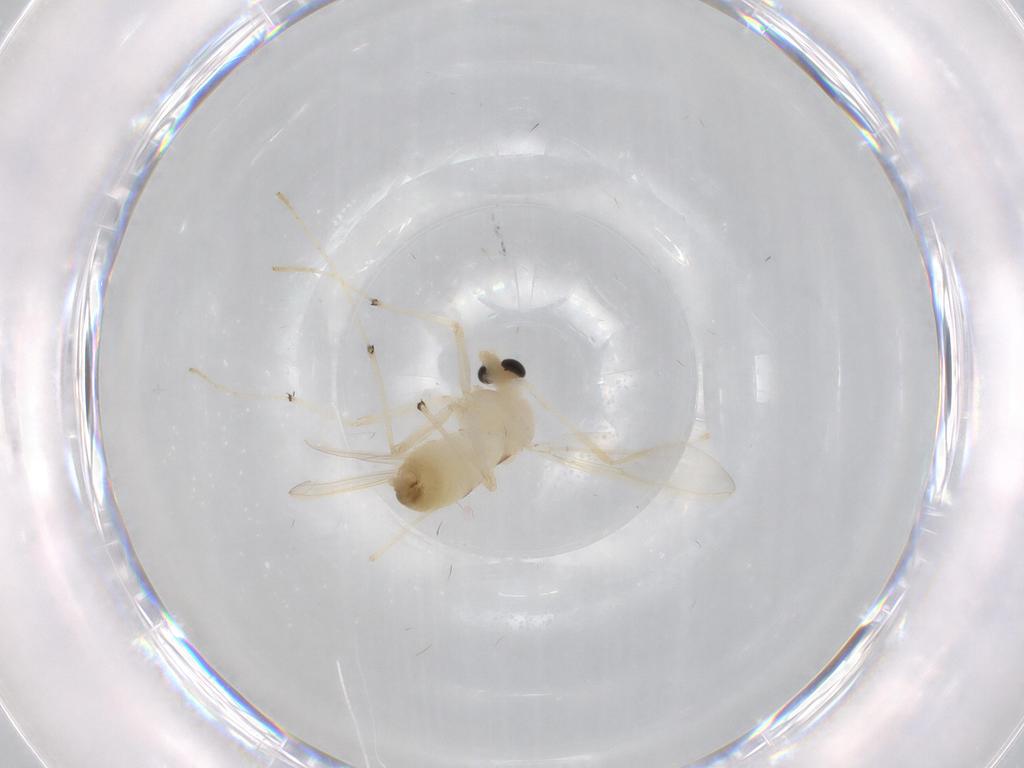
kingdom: Animalia
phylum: Arthropoda
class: Insecta
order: Diptera
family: Chironomidae
